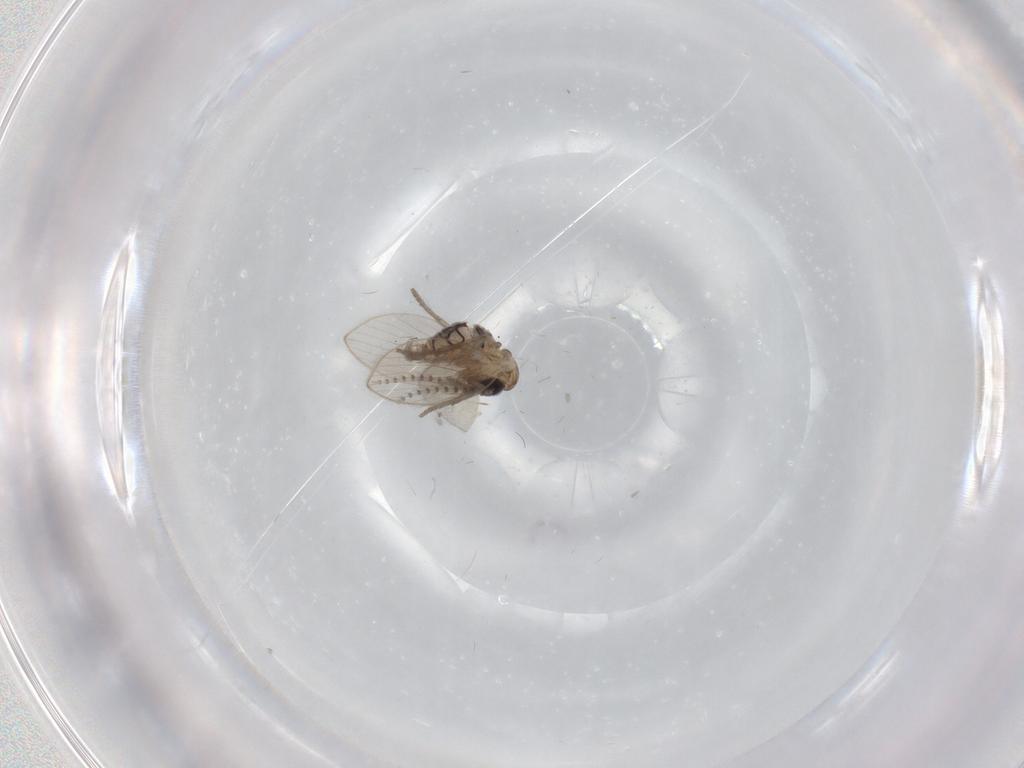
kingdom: Animalia
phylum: Arthropoda
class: Insecta
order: Diptera
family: Psychodidae
